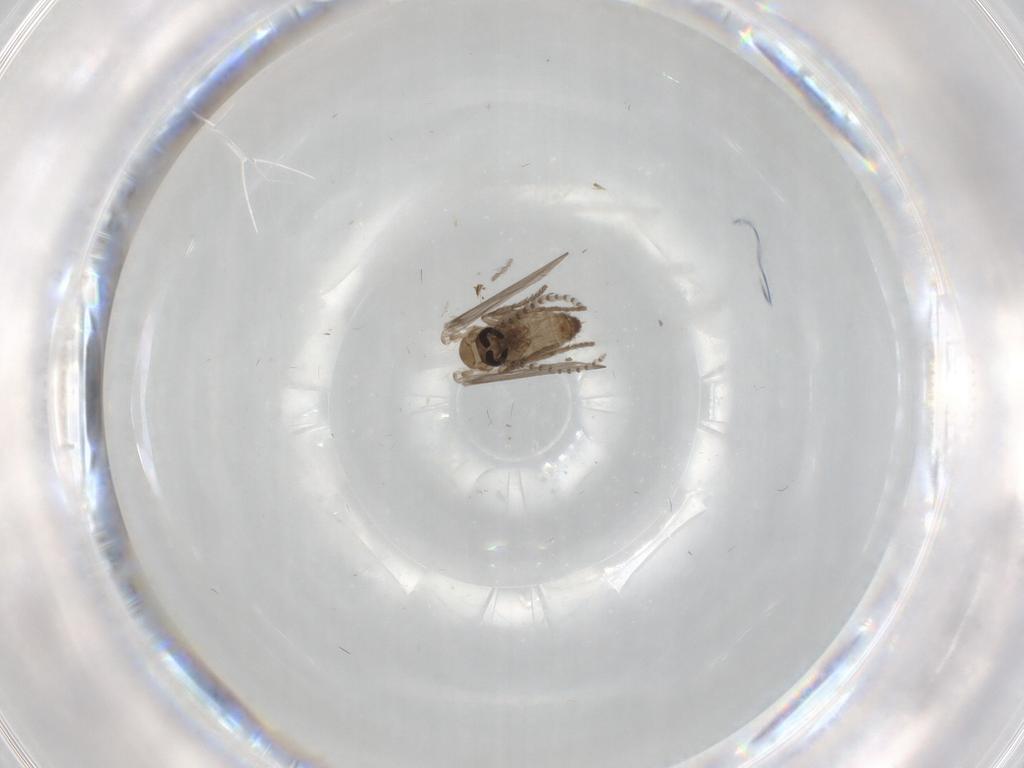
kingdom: Animalia
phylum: Arthropoda
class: Insecta
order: Diptera
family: Psychodidae
